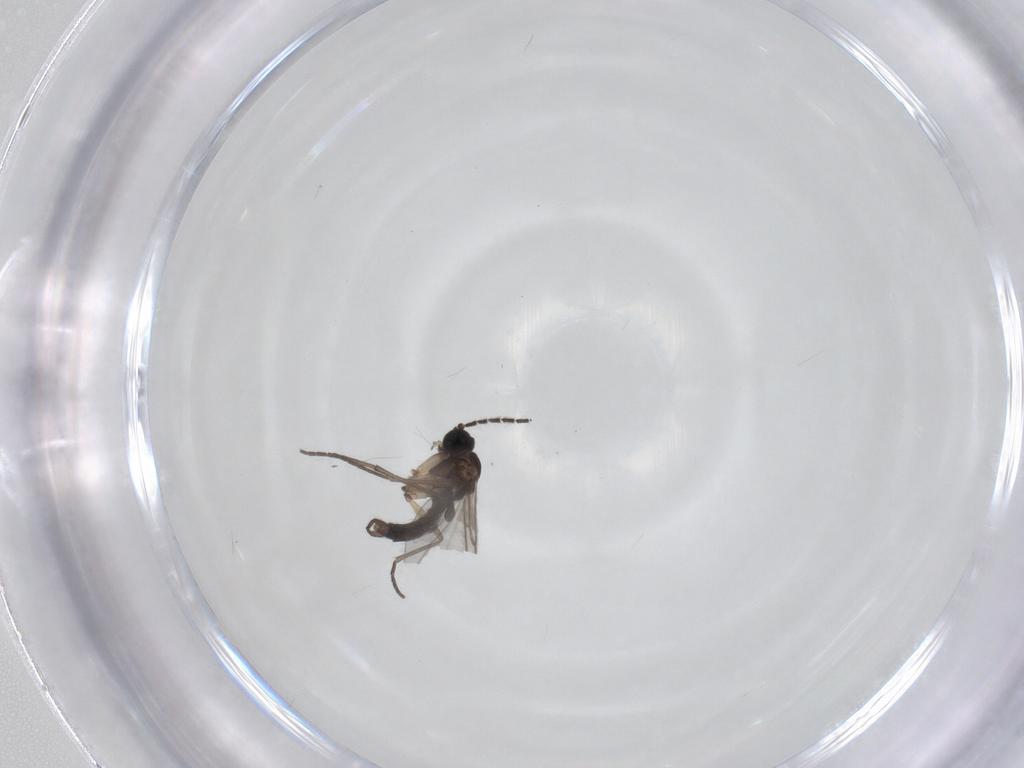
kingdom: Animalia
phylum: Arthropoda
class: Insecta
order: Diptera
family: Sciaridae
